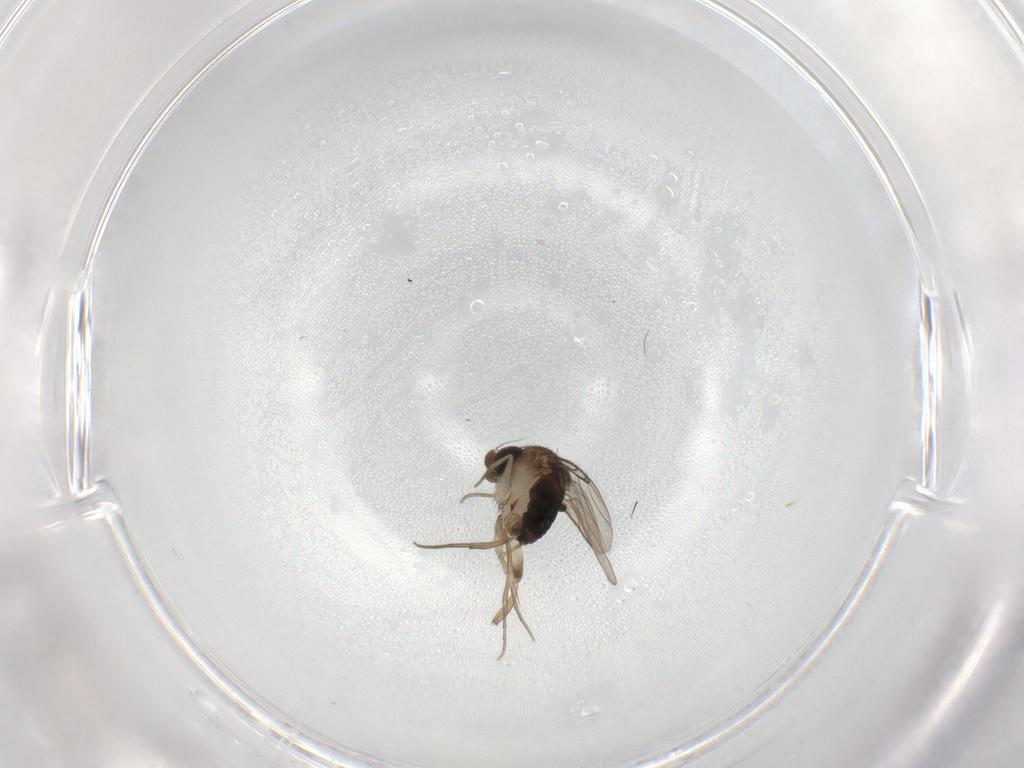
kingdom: Animalia
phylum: Arthropoda
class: Insecta
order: Diptera
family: Phoridae
